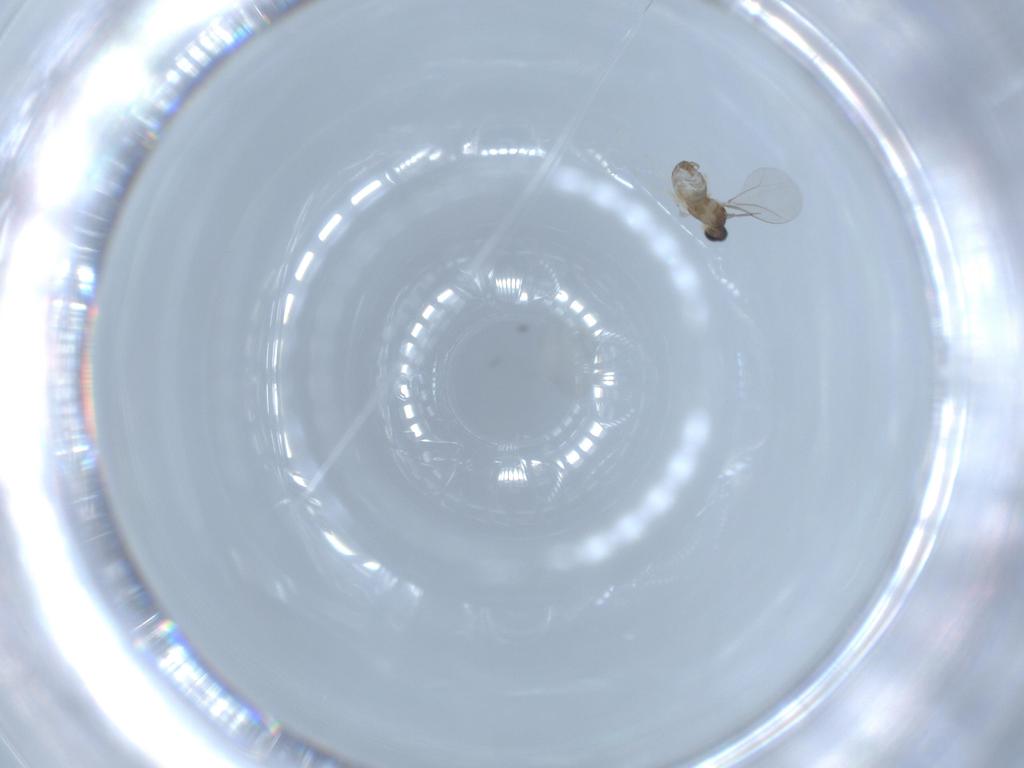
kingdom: Animalia
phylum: Arthropoda
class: Insecta
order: Diptera
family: Cecidomyiidae
